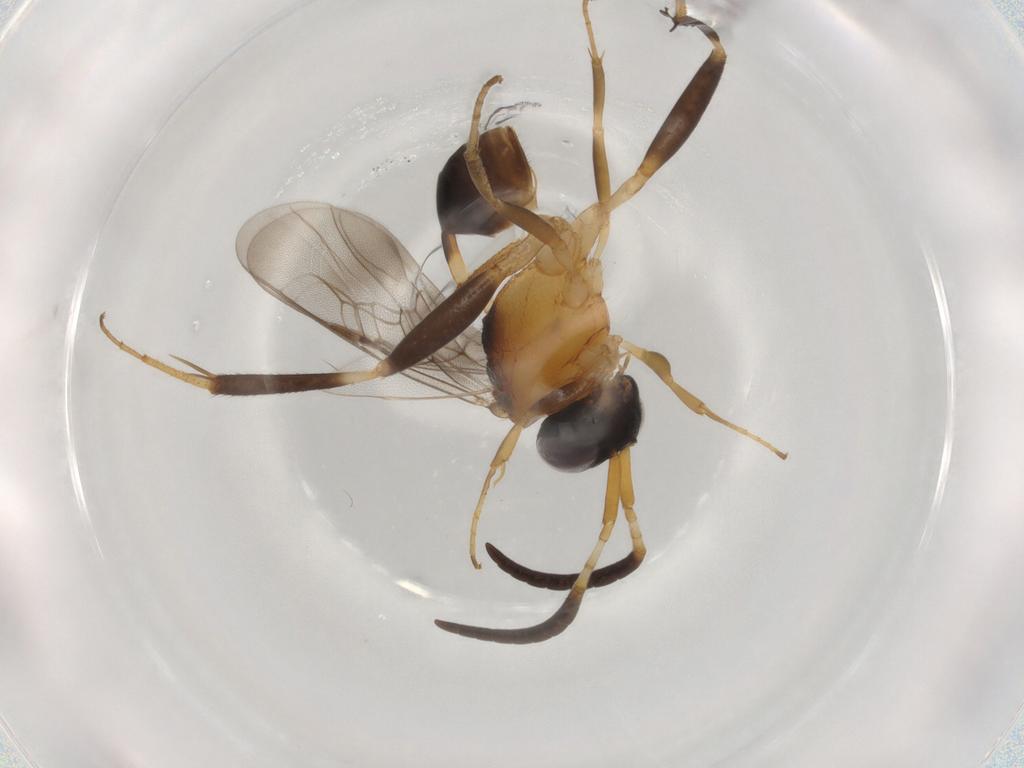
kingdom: Animalia
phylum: Arthropoda
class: Insecta
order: Hymenoptera
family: Evaniidae
